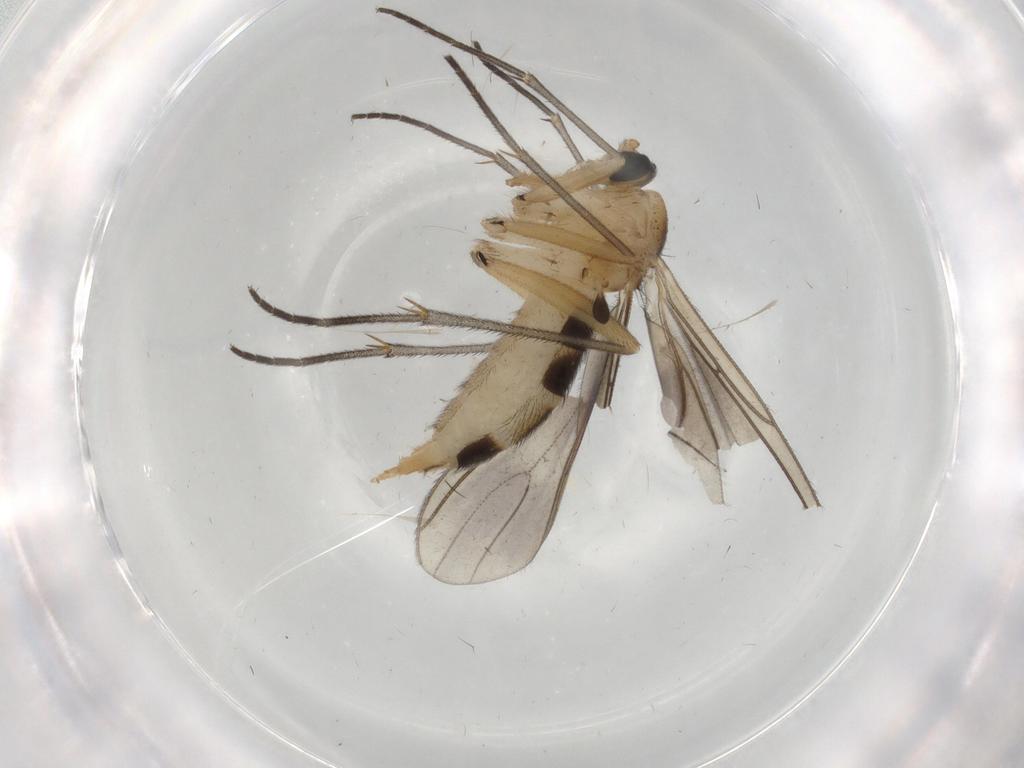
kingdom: Animalia
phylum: Arthropoda
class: Insecta
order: Diptera
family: Sciaridae
